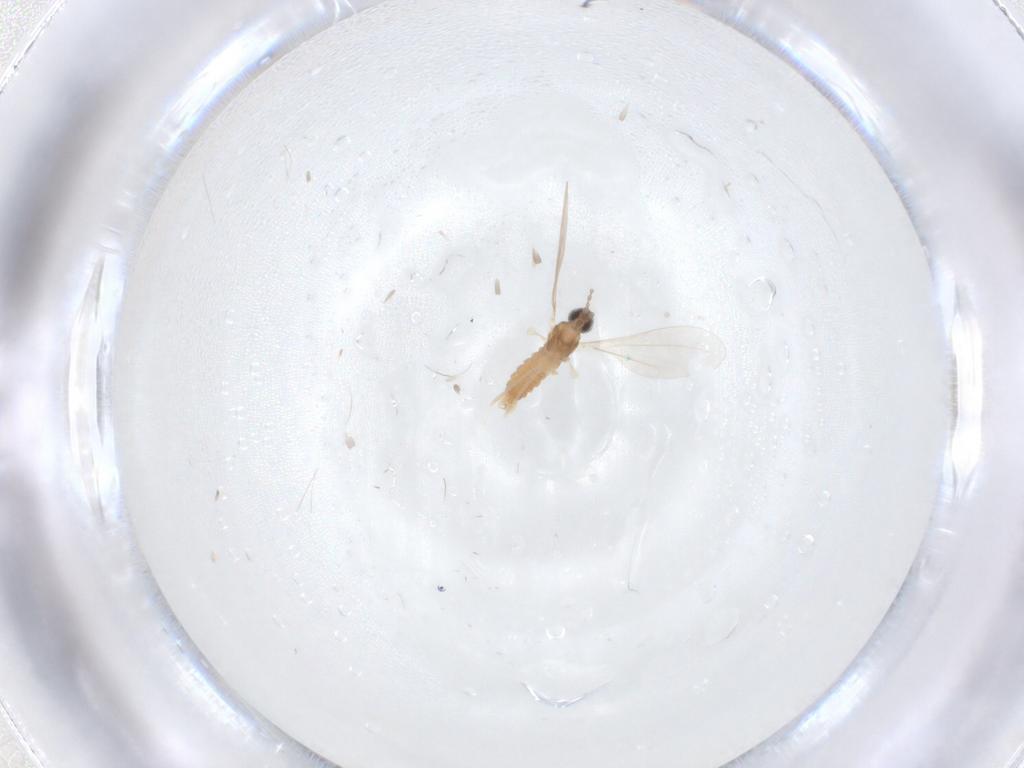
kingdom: Animalia
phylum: Arthropoda
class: Insecta
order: Diptera
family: Cecidomyiidae
